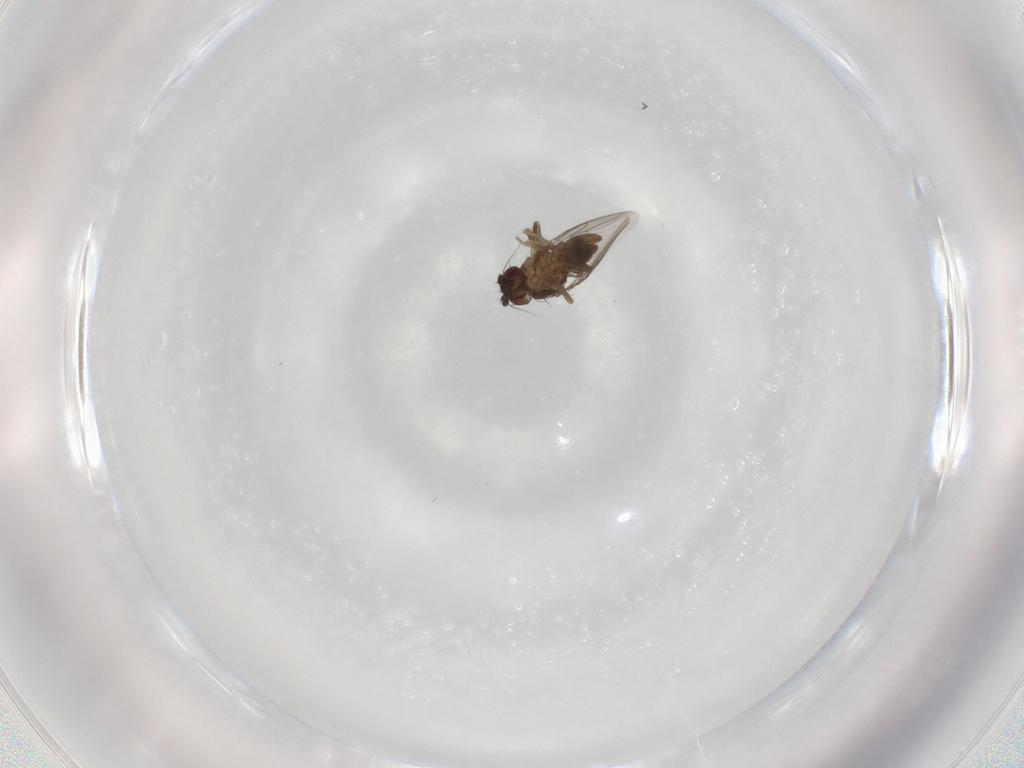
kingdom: Animalia
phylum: Arthropoda
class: Insecta
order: Diptera
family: Sphaeroceridae
